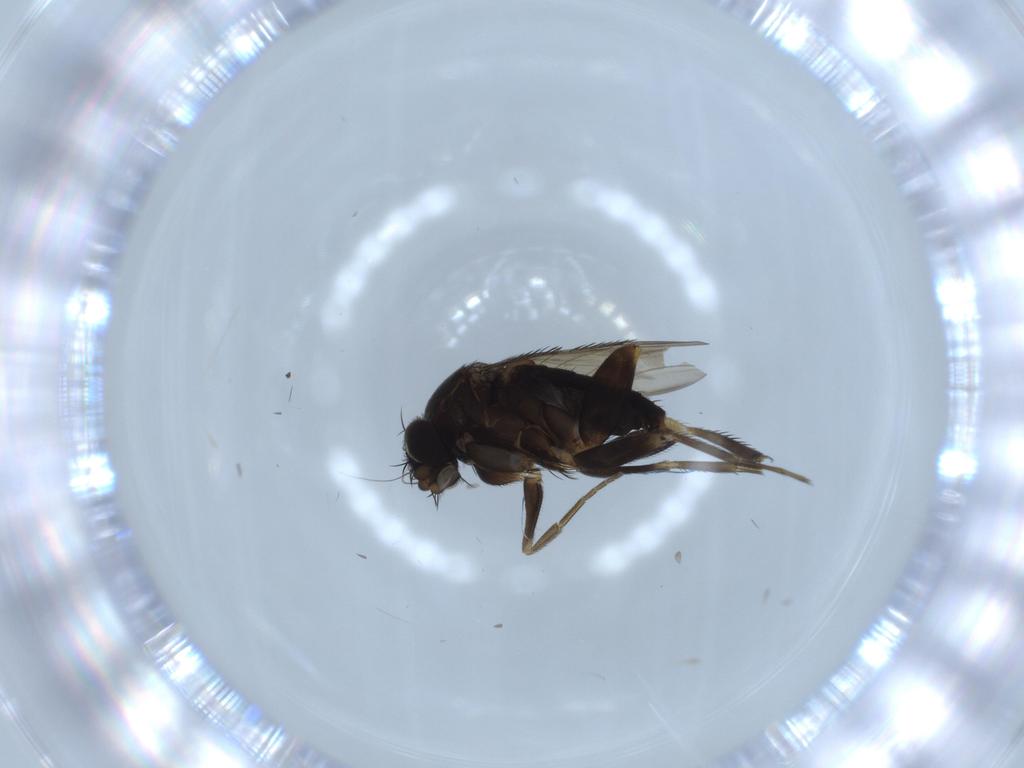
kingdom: Animalia
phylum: Arthropoda
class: Insecta
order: Diptera
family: Phoridae
